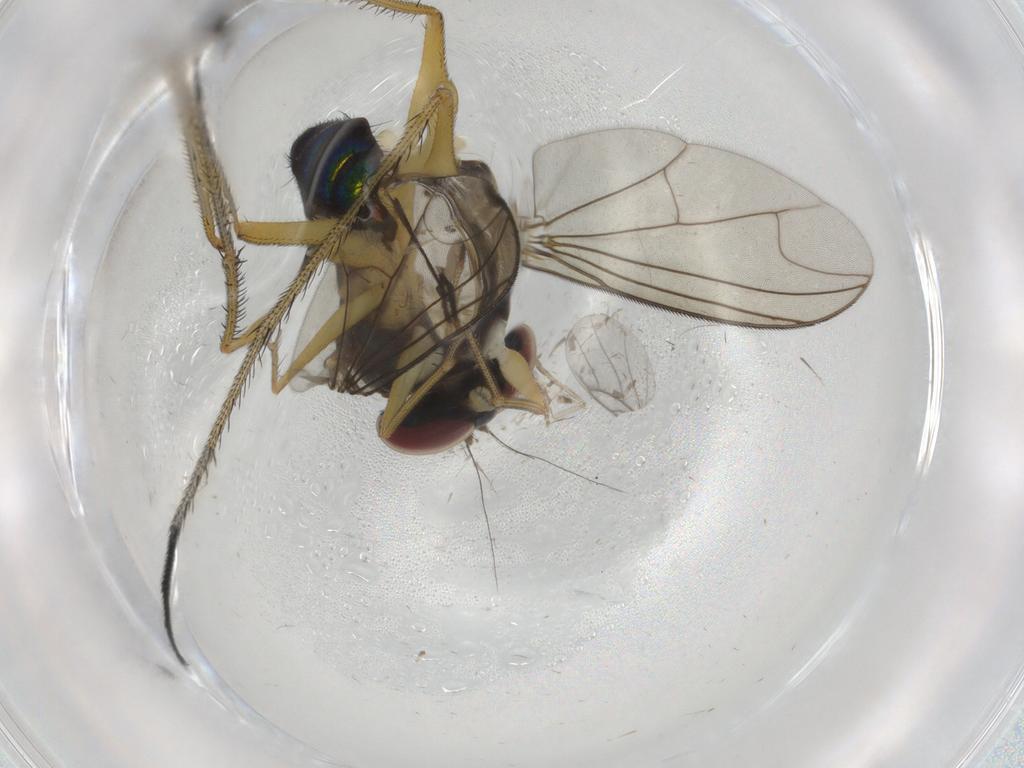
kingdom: Animalia
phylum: Arthropoda
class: Insecta
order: Diptera
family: Dolichopodidae
